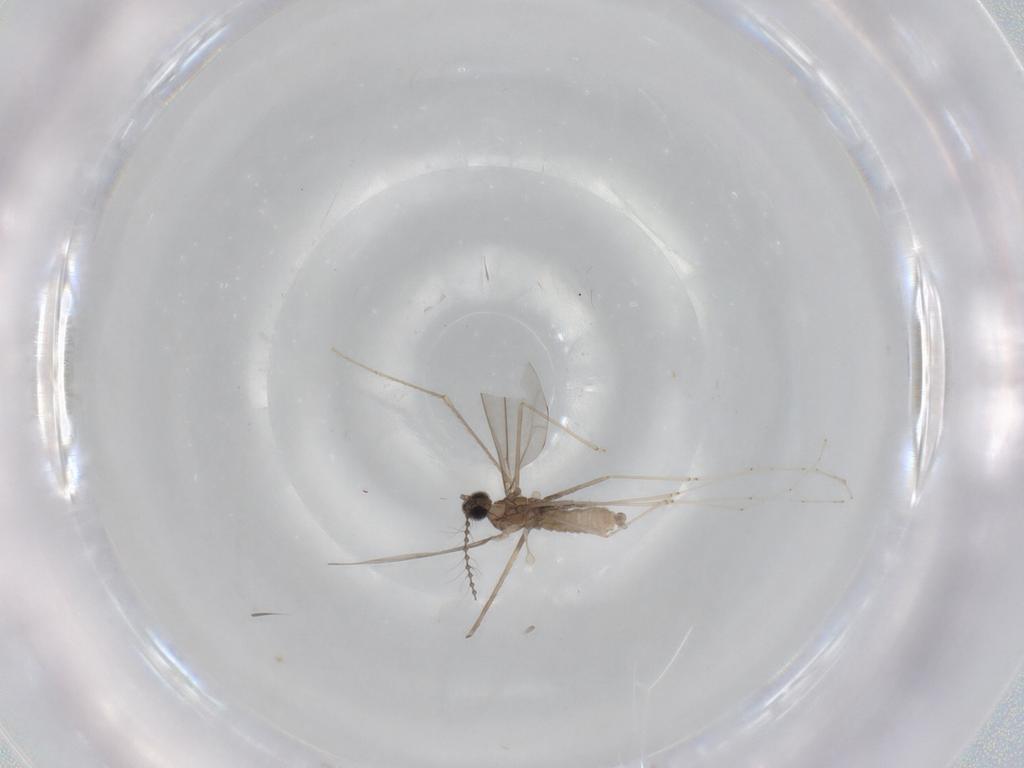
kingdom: Animalia
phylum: Arthropoda
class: Insecta
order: Diptera
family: Cecidomyiidae
